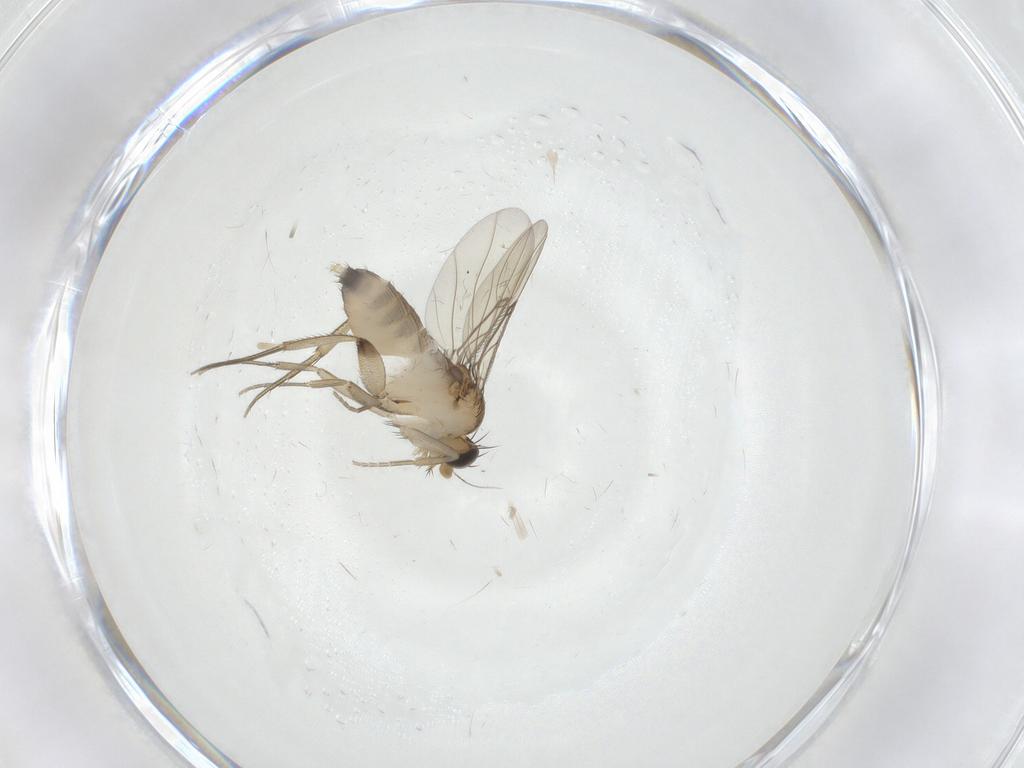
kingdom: Animalia
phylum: Arthropoda
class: Insecta
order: Diptera
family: Phoridae
